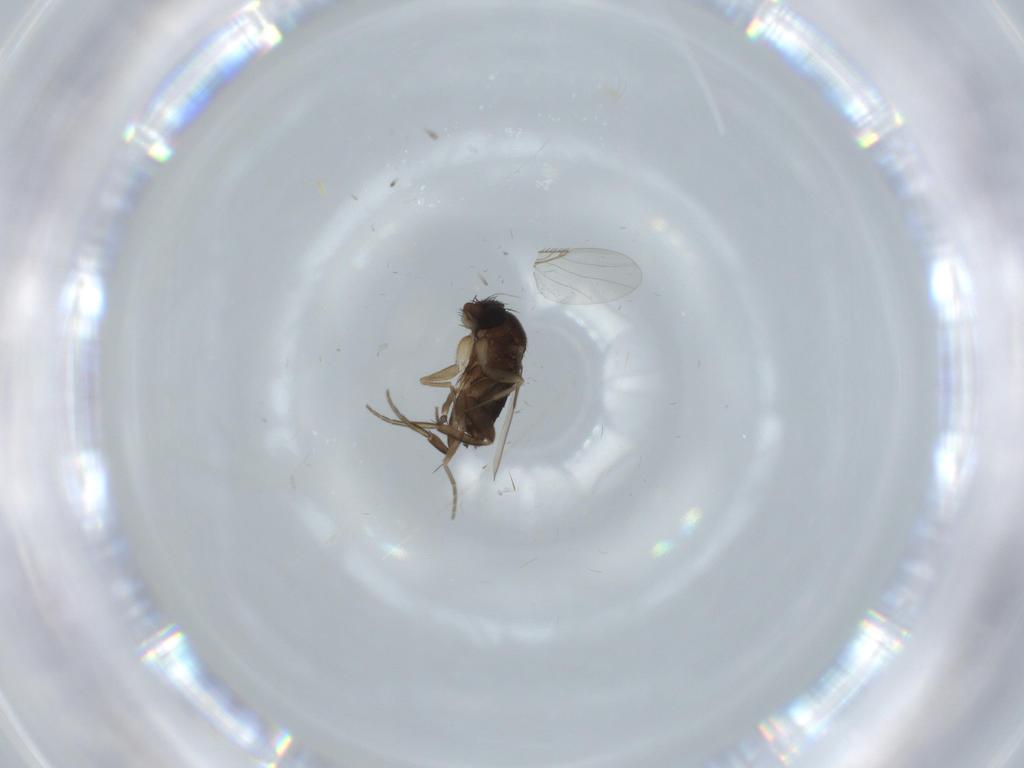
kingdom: Animalia
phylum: Arthropoda
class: Insecta
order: Diptera
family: Phoridae
